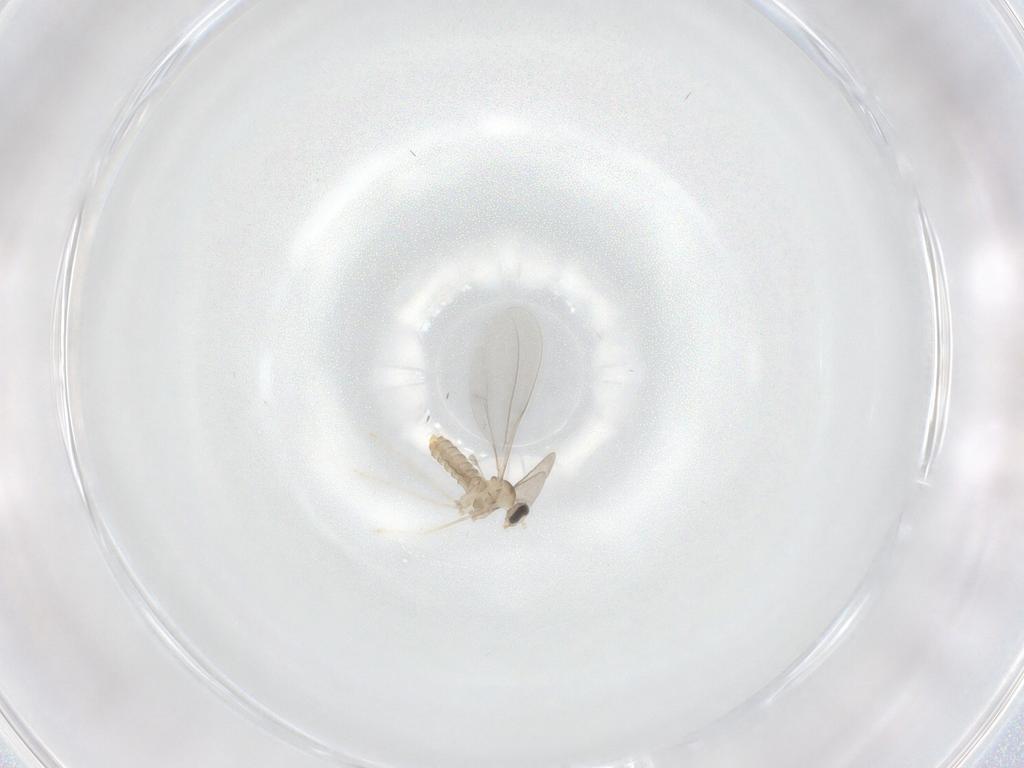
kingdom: Animalia
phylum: Arthropoda
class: Insecta
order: Diptera
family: Cecidomyiidae
